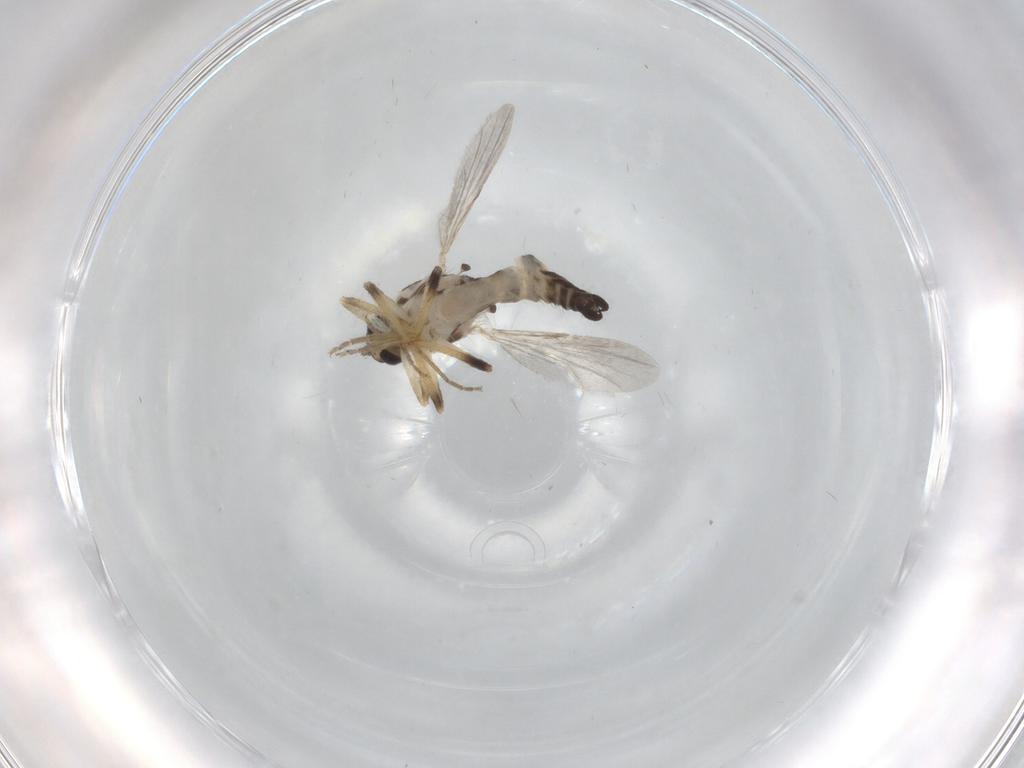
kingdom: Animalia
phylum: Arthropoda
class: Insecta
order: Diptera
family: Ceratopogonidae
